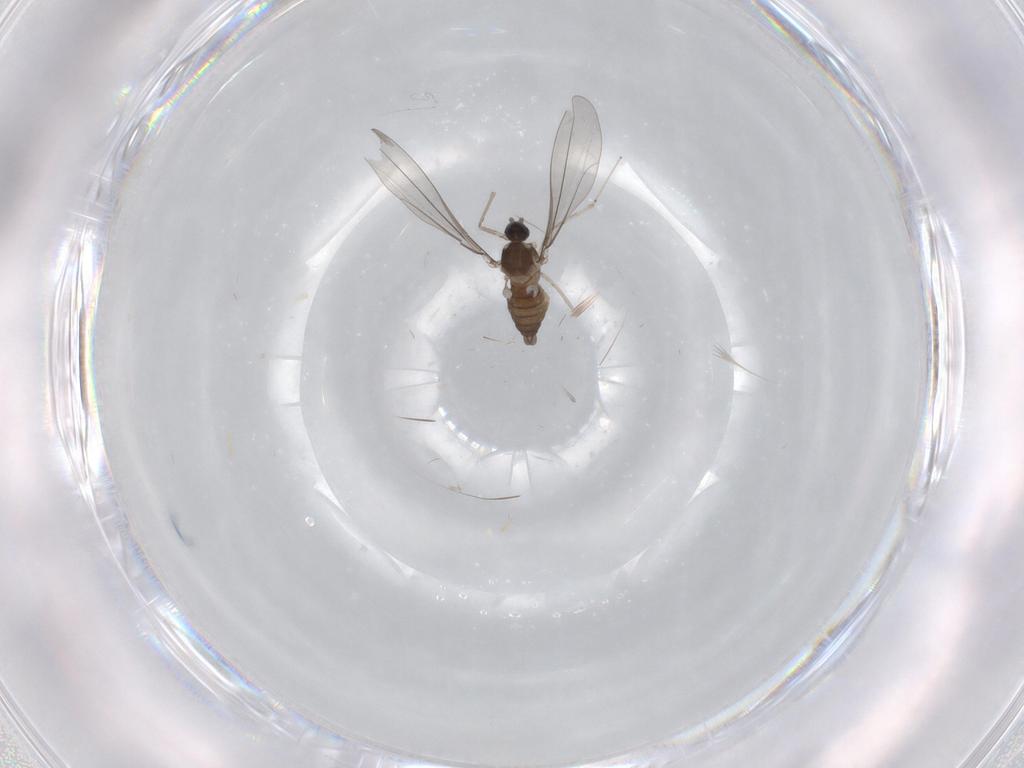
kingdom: Animalia
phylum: Arthropoda
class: Insecta
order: Diptera
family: Cecidomyiidae
